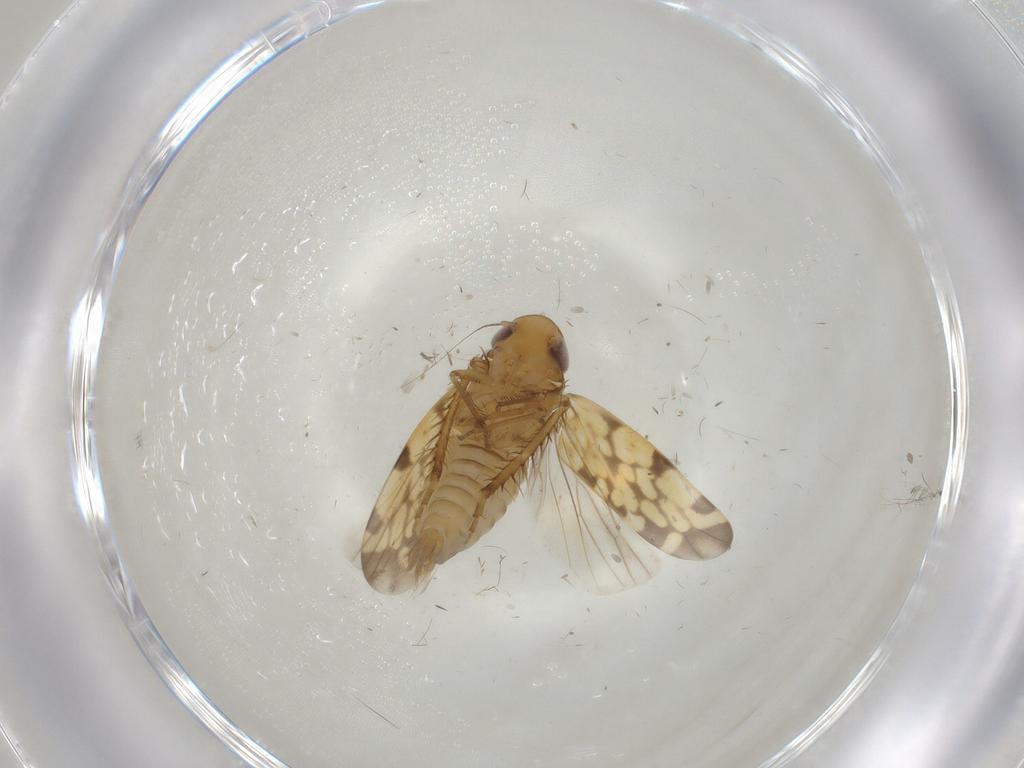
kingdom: Animalia
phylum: Arthropoda
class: Insecta
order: Hemiptera
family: Cicadellidae
